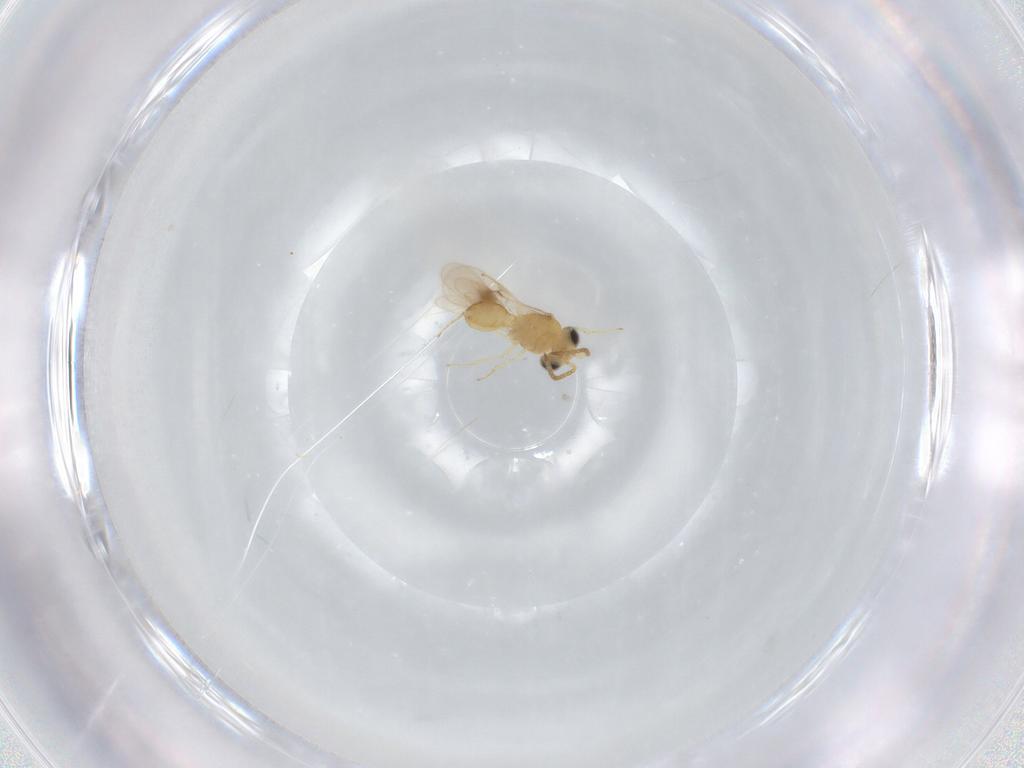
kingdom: Animalia
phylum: Arthropoda
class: Insecta
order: Hymenoptera
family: Scelionidae
